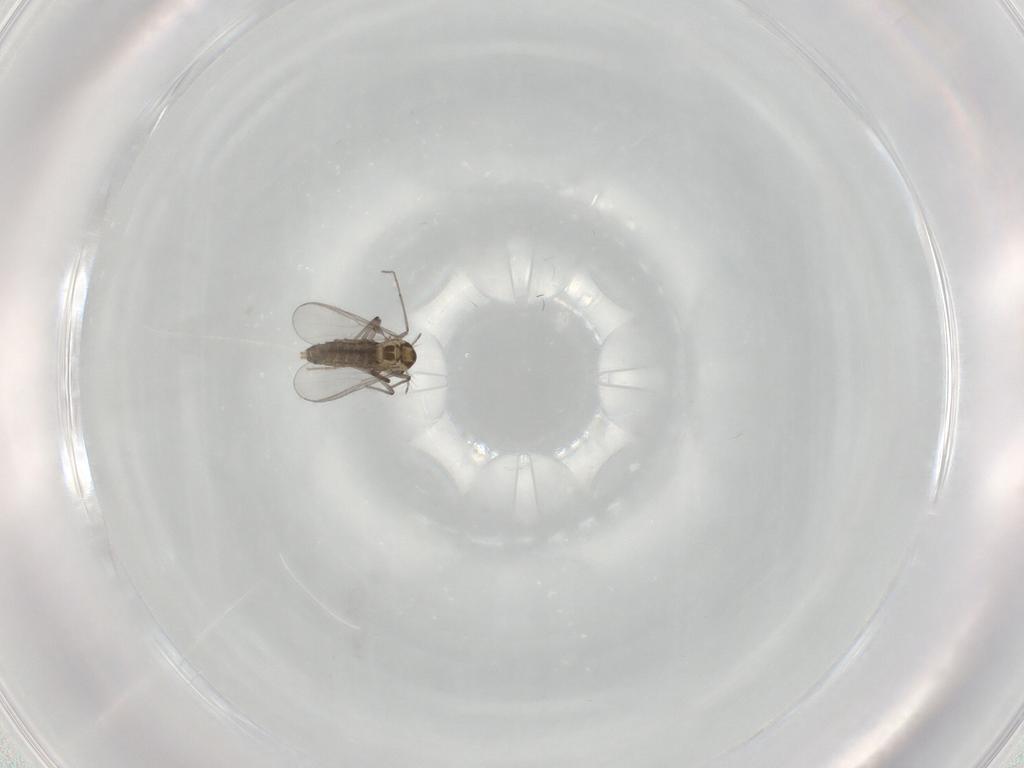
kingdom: Animalia
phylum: Arthropoda
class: Insecta
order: Diptera
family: Chironomidae
